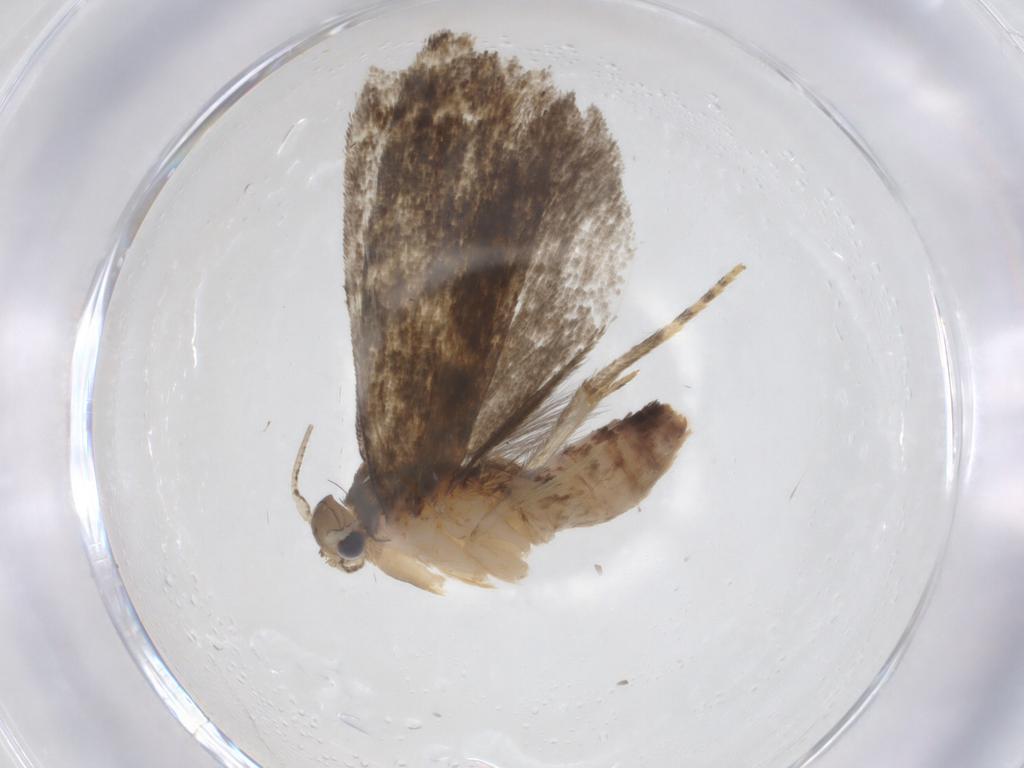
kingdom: Animalia
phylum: Arthropoda
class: Insecta
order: Lepidoptera
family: Tineidae
